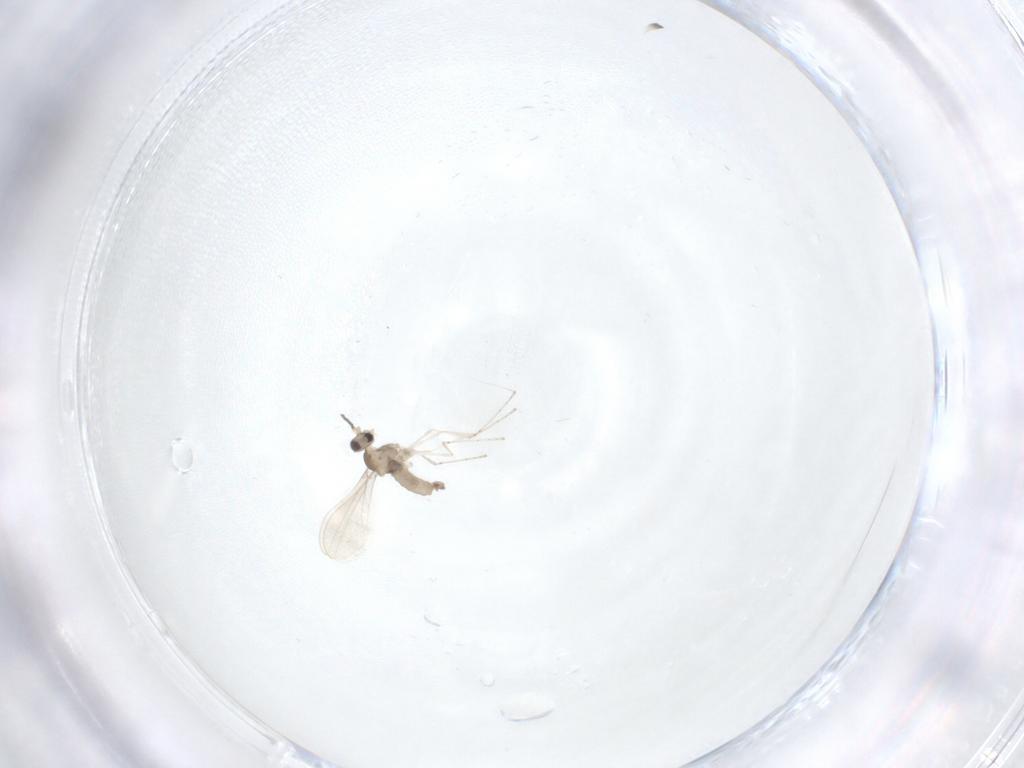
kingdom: Animalia
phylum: Arthropoda
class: Insecta
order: Diptera
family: Cecidomyiidae
